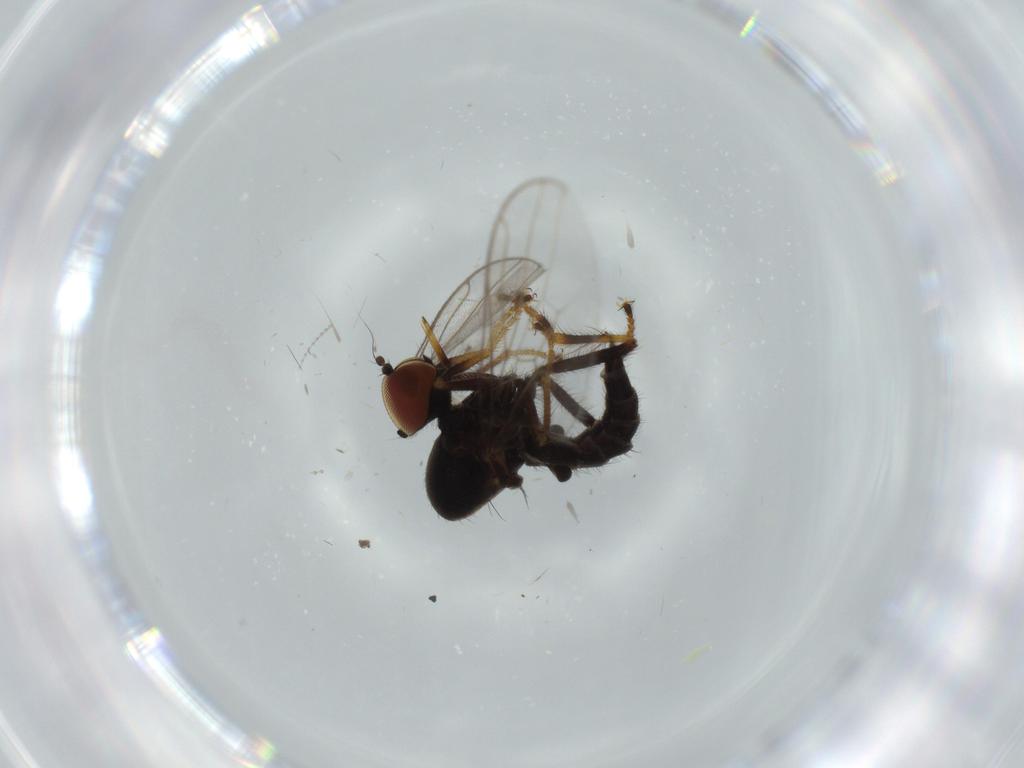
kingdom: Animalia
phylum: Arthropoda
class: Insecta
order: Diptera
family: Hybotidae
